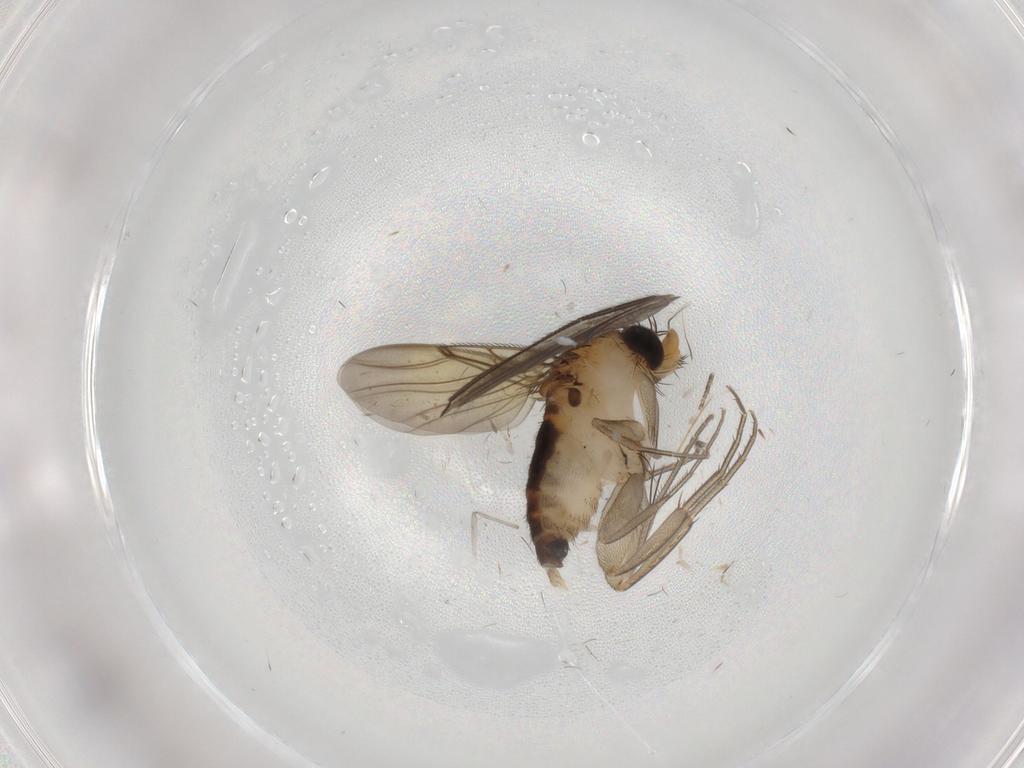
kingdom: Animalia
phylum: Arthropoda
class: Insecta
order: Diptera
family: Phoridae
